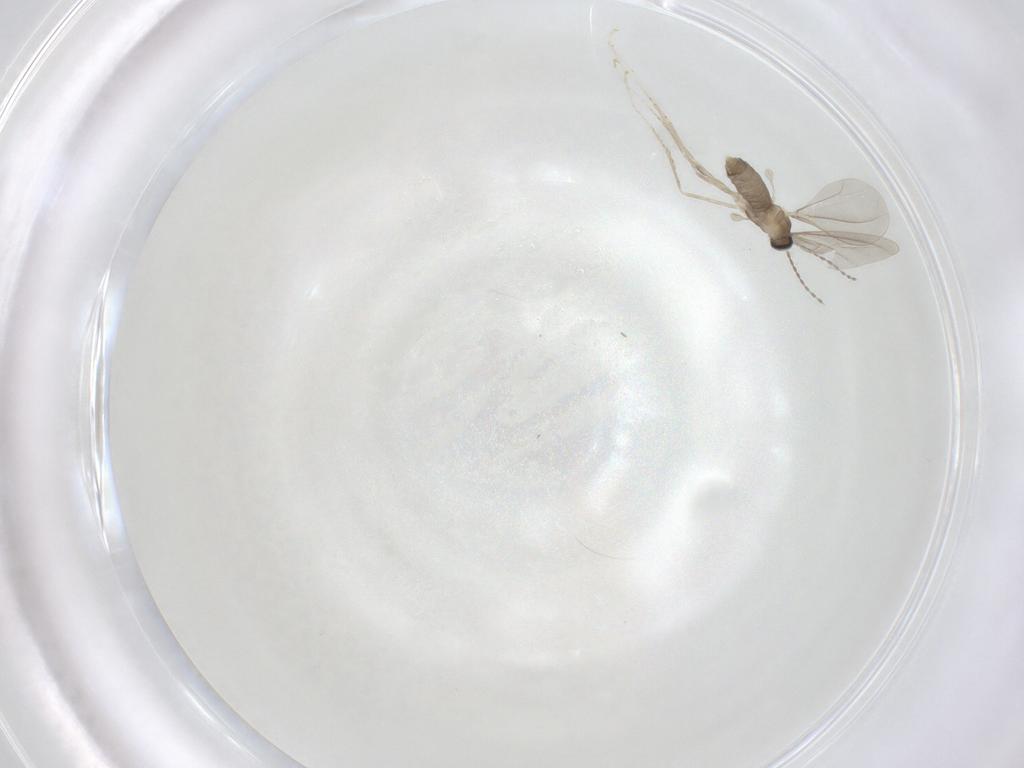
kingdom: Animalia
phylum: Arthropoda
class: Insecta
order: Diptera
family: Cecidomyiidae
